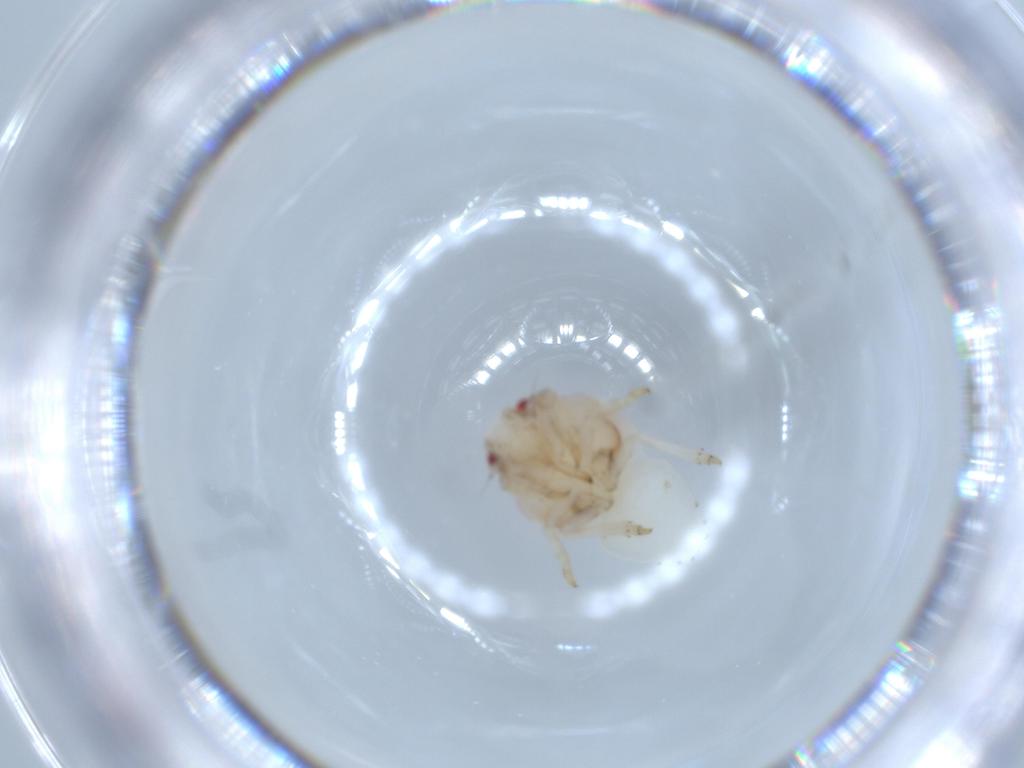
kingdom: Animalia
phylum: Arthropoda
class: Insecta
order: Hemiptera
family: Acanaloniidae
